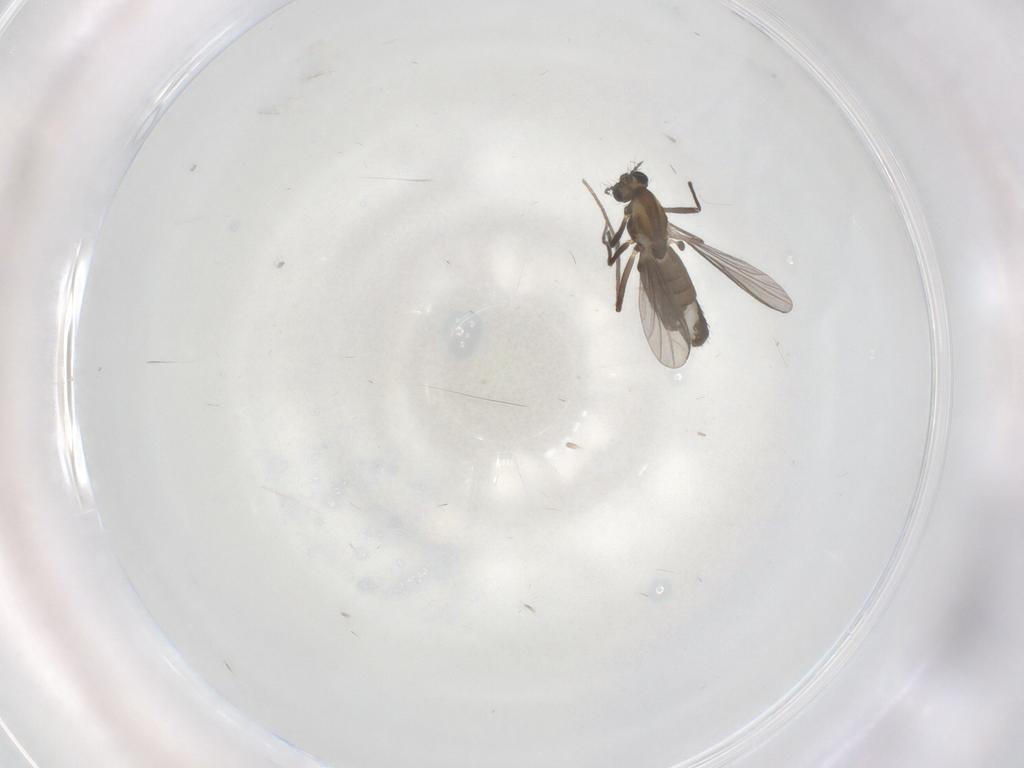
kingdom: Animalia
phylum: Arthropoda
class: Insecta
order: Diptera
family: Chironomidae
